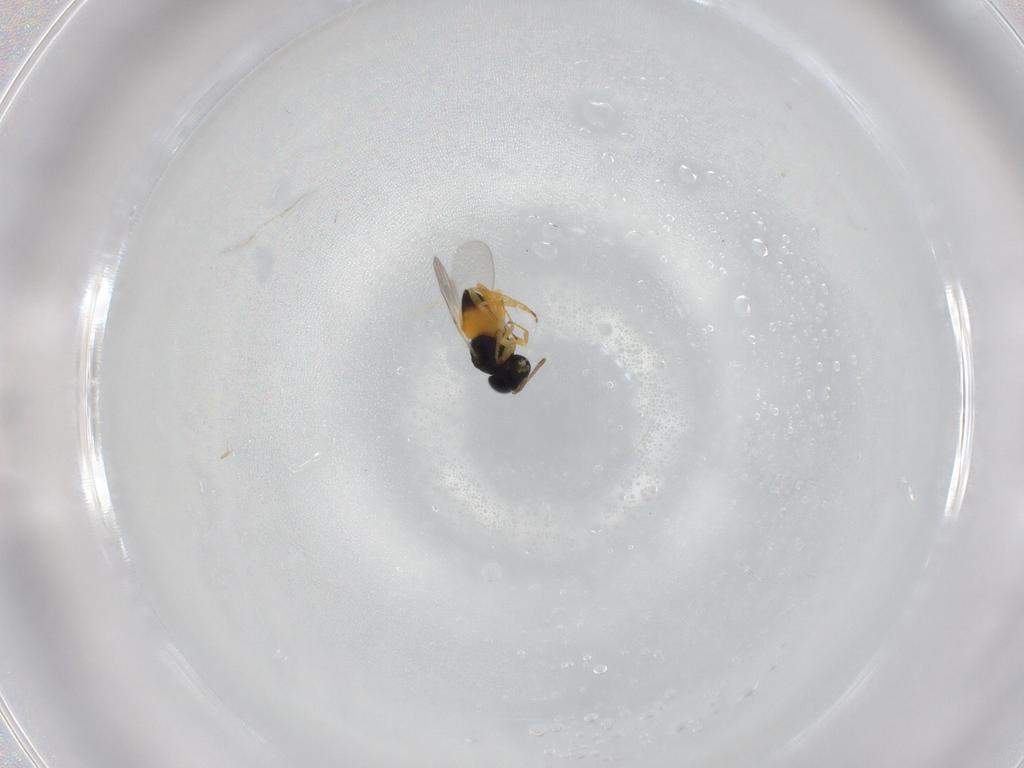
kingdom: Animalia
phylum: Arthropoda
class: Insecta
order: Hymenoptera
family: Encyrtidae
